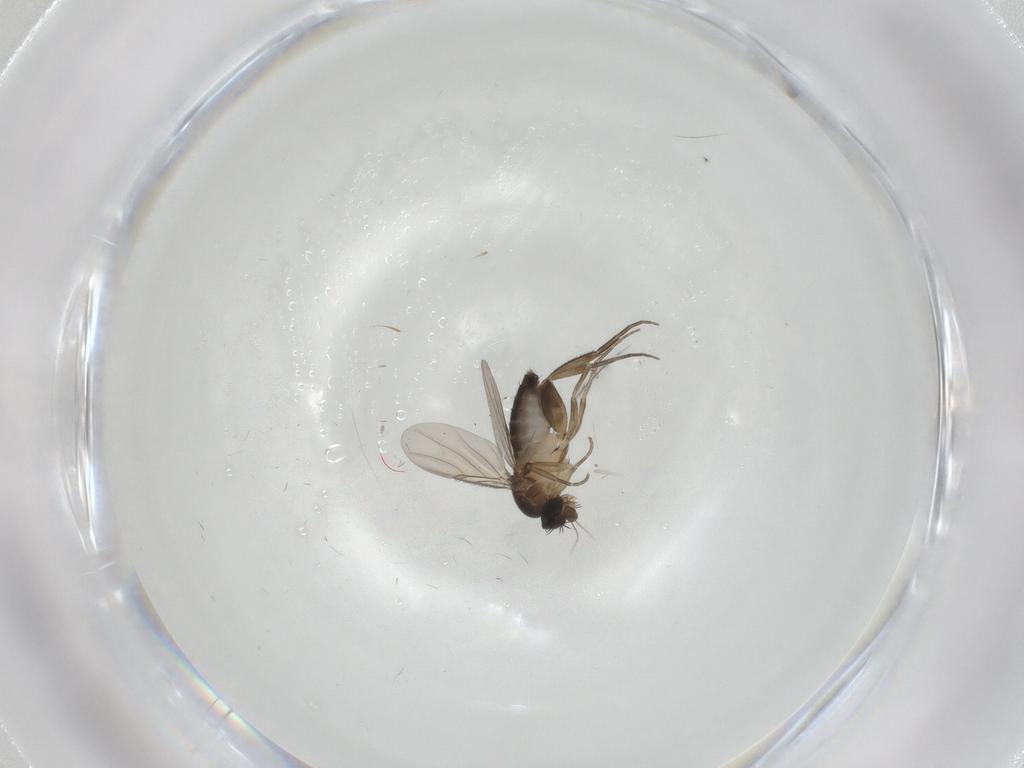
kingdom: Animalia
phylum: Arthropoda
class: Insecta
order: Diptera
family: Phoridae
